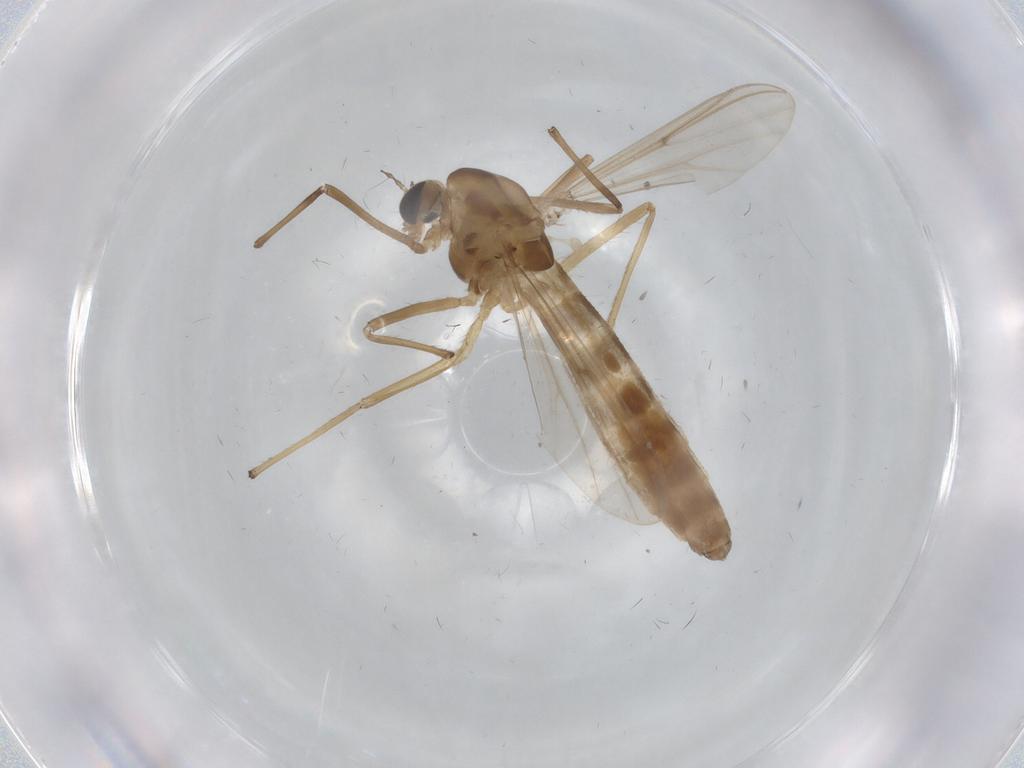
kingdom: Animalia
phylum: Arthropoda
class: Insecta
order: Diptera
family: Chironomidae
